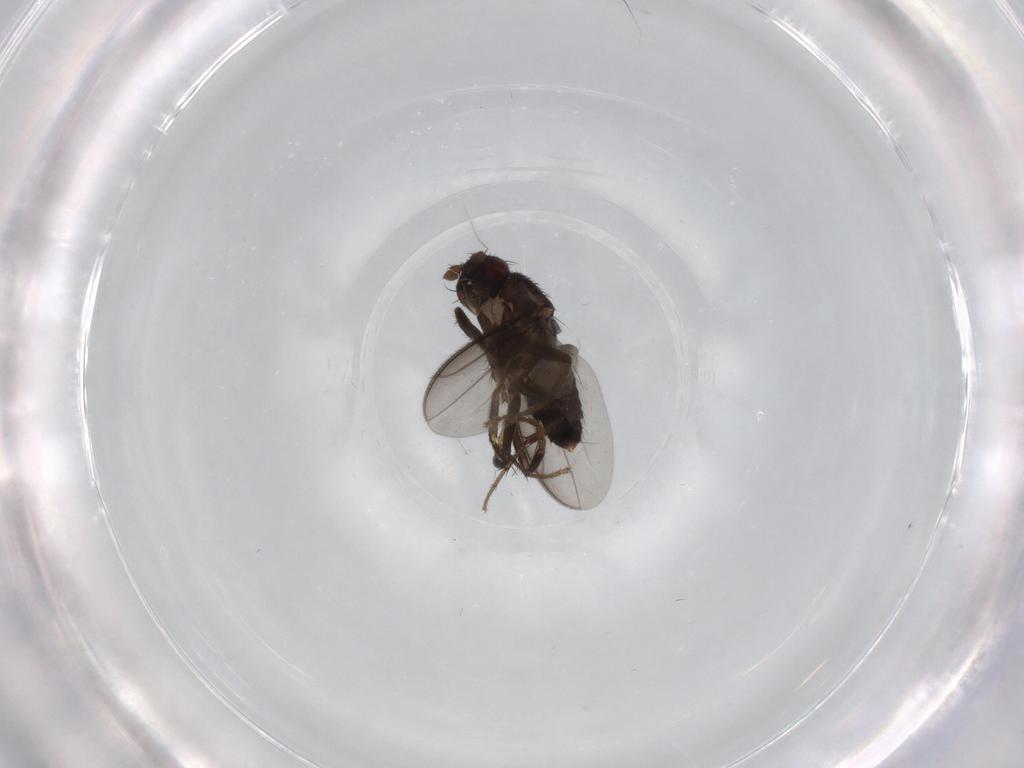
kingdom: Animalia
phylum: Arthropoda
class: Insecta
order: Diptera
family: Sphaeroceridae
